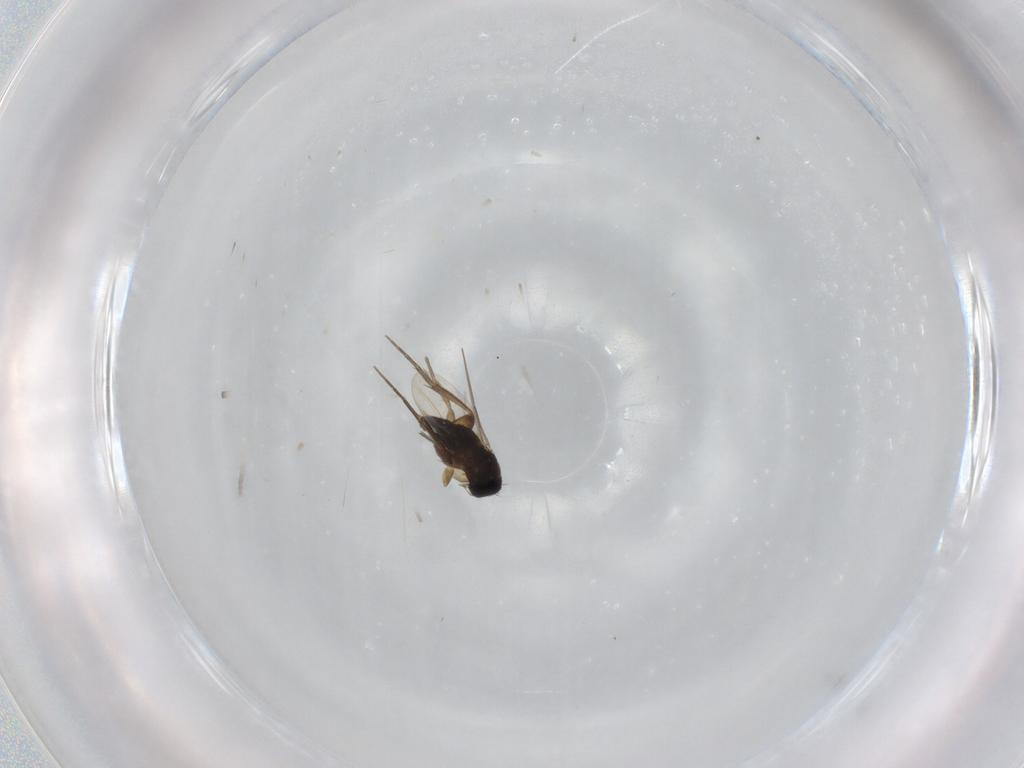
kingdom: Animalia
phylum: Arthropoda
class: Insecta
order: Diptera
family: Phoridae
